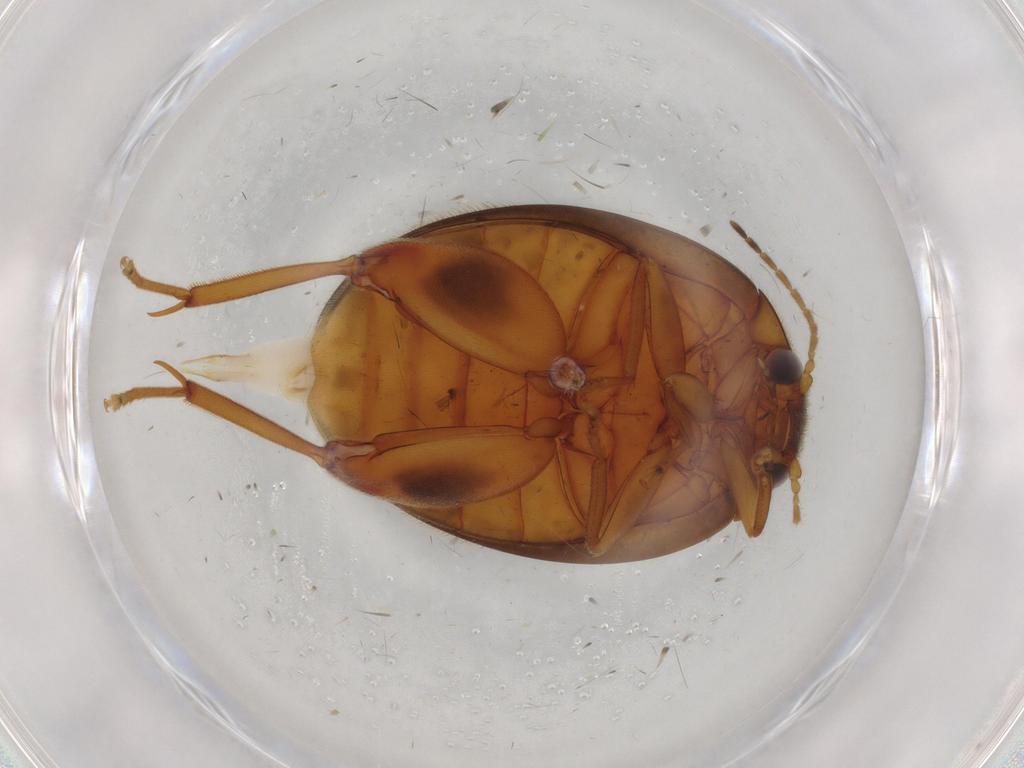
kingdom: Animalia
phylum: Arthropoda
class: Insecta
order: Coleoptera
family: Scirtidae
